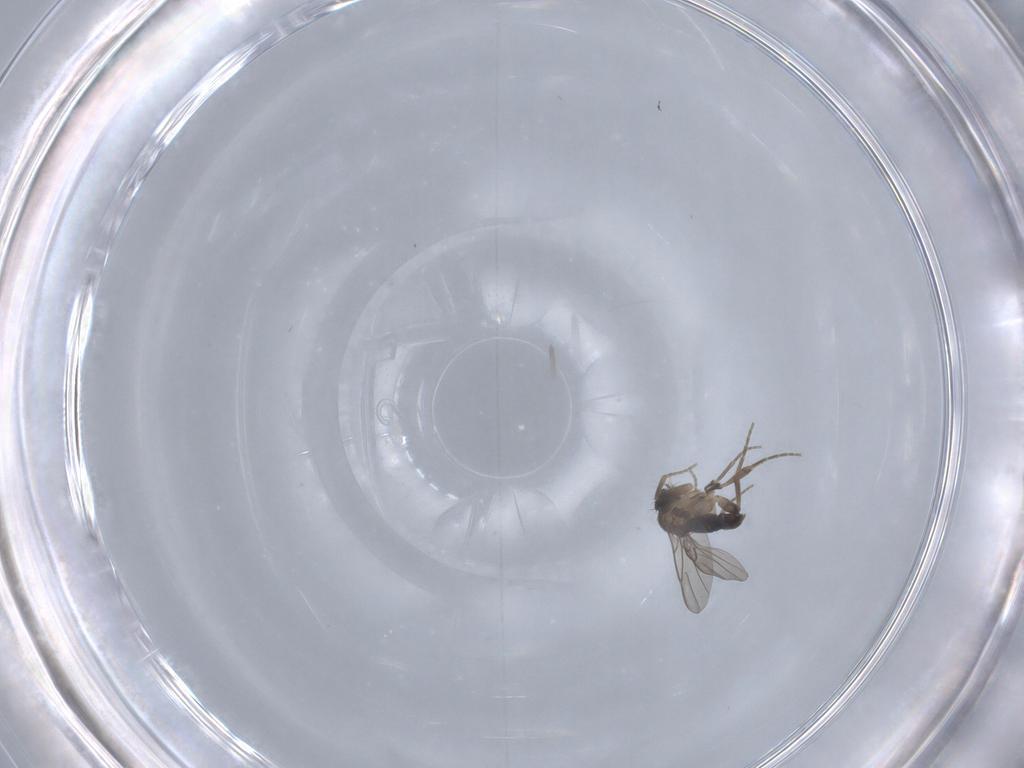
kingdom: Animalia
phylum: Arthropoda
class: Insecta
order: Diptera
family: Phoridae
